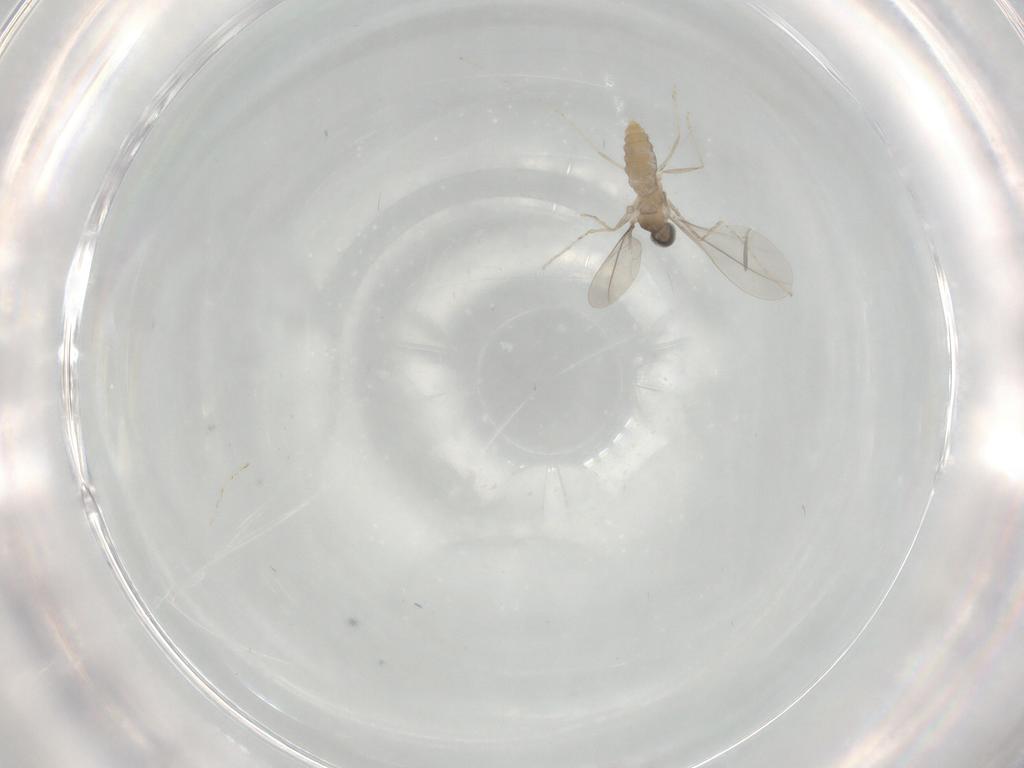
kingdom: Animalia
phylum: Arthropoda
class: Insecta
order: Diptera
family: Cecidomyiidae
